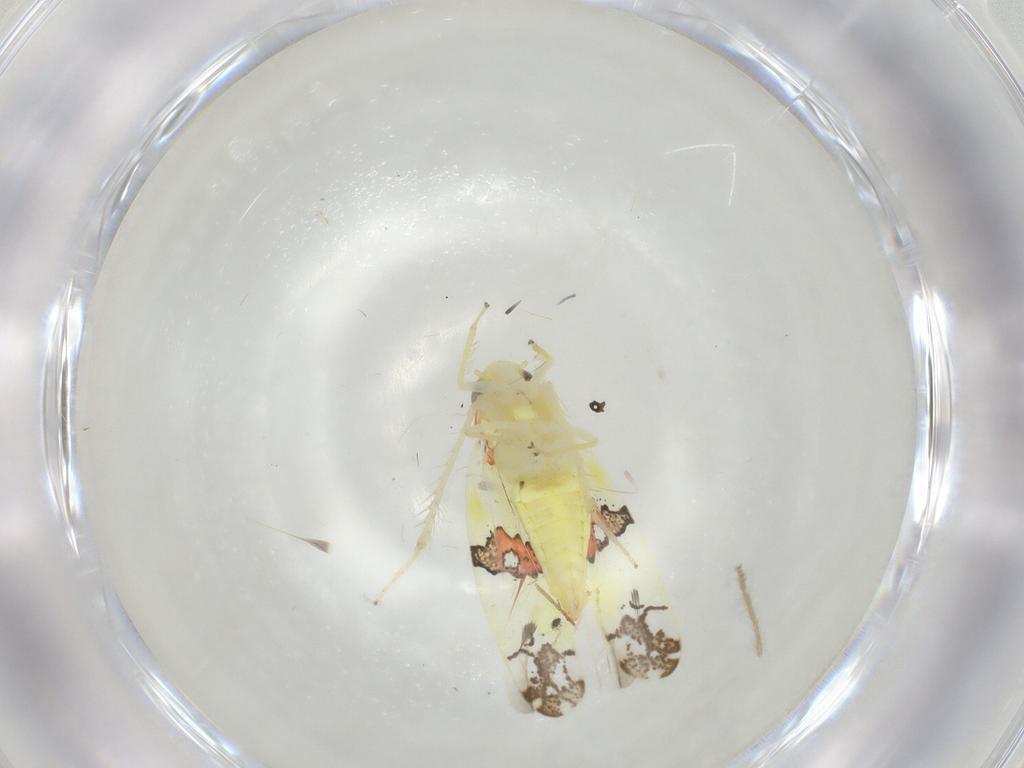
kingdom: Animalia
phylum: Arthropoda
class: Insecta
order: Hemiptera
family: Cicadellidae
